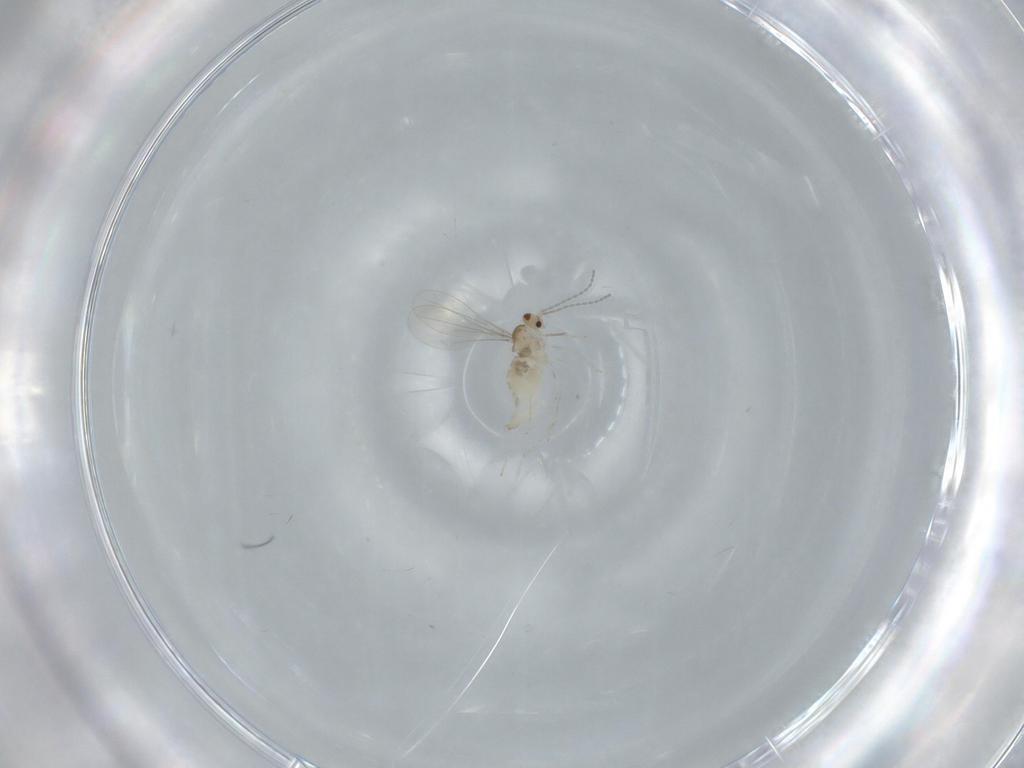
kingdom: Animalia
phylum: Arthropoda
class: Insecta
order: Diptera
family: Cecidomyiidae
